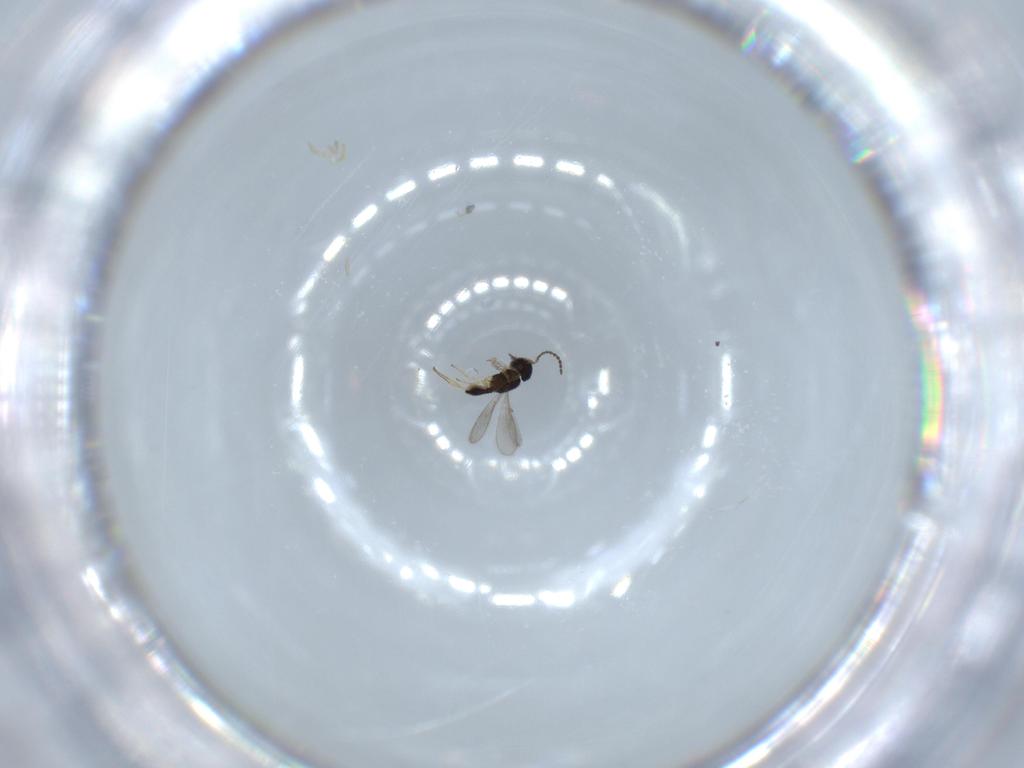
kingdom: Animalia
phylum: Arthropoda
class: Insecta
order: Hymenoptera
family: Scelionidae
